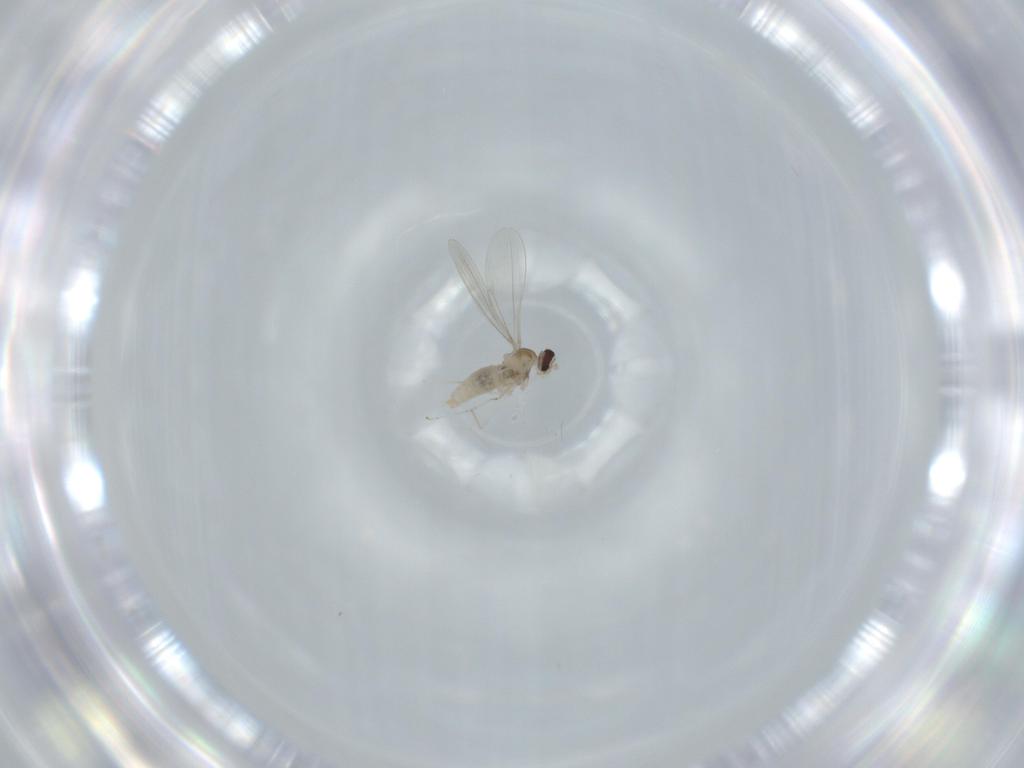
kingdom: Animalia
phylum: Arthropoda
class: Insecta
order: Diptera
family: Cecidomyiidae
